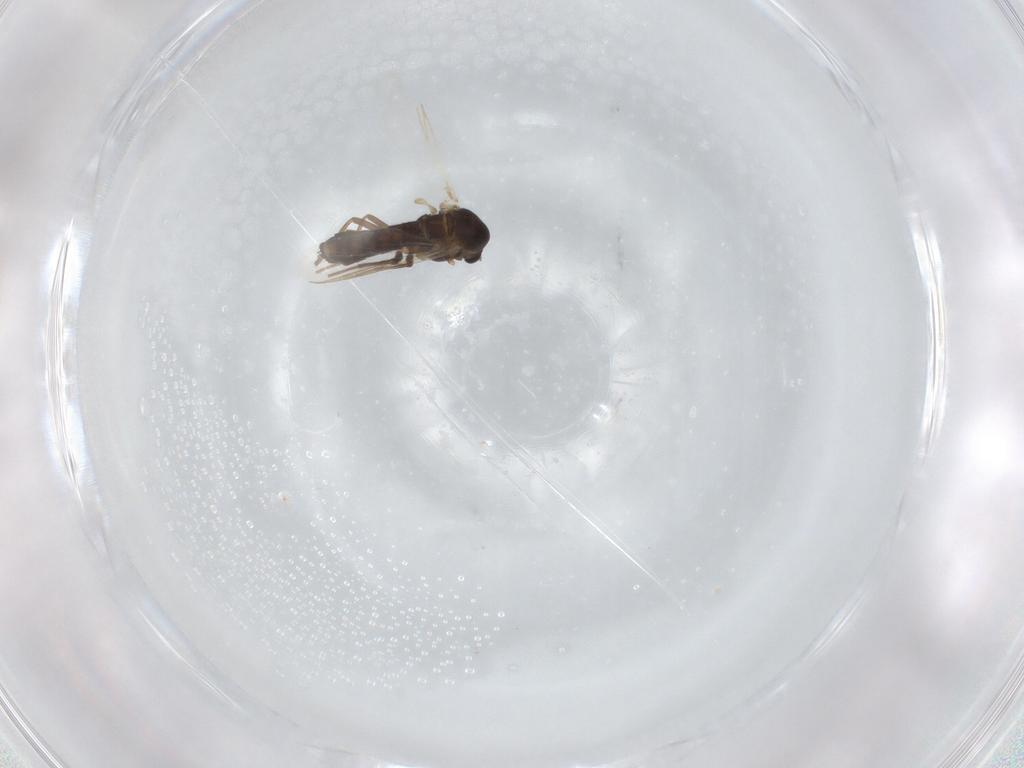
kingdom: Animalia
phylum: Arthropoda
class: Insecta
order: Diptera
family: Chironomidae
